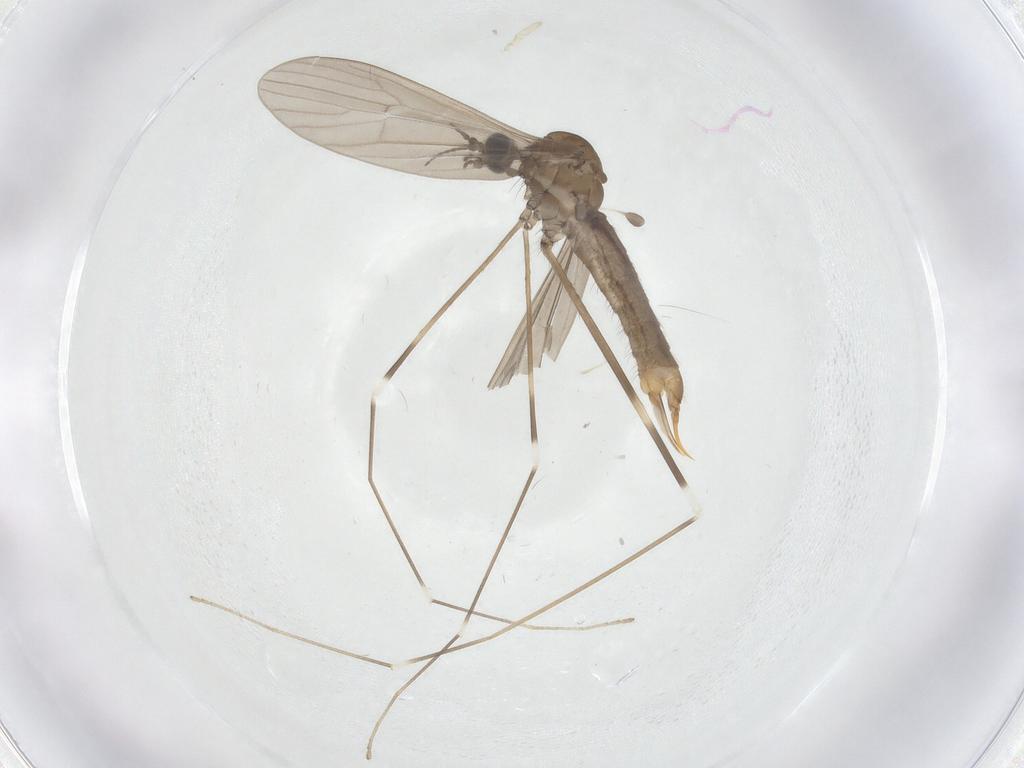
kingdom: Animalia
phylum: Arthropoda
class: Insecta
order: Diptera
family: Limoniidae
